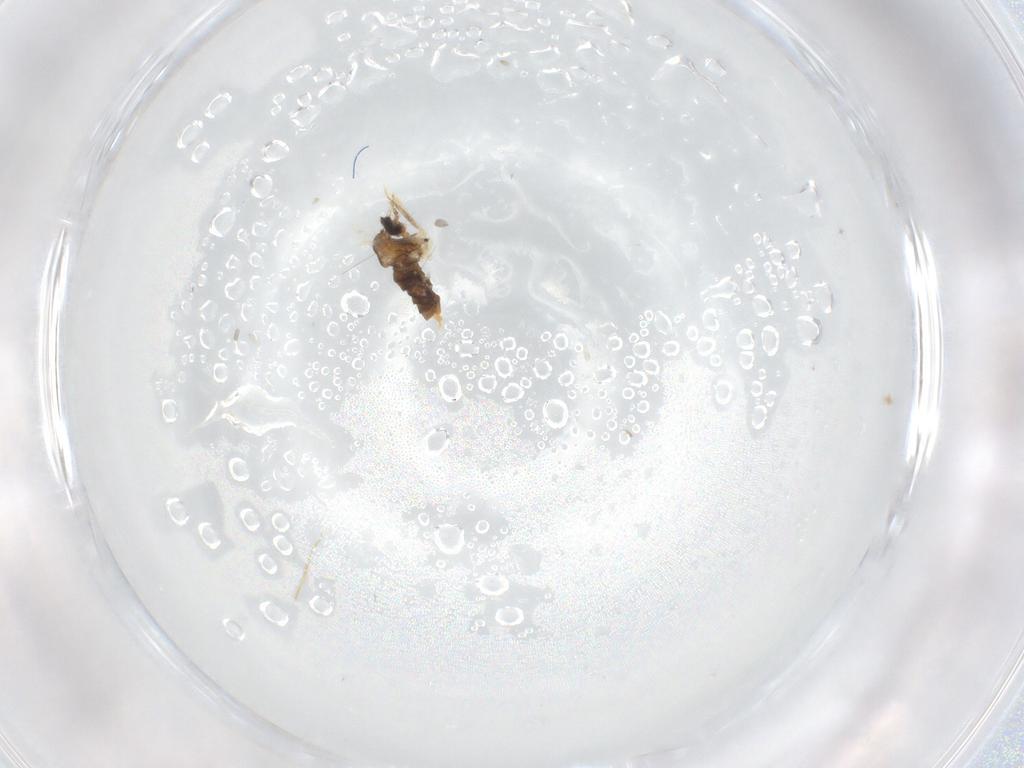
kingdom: Animalia
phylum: Arthropoda
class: Insecta
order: Diptera
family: Cecidomyiidae
